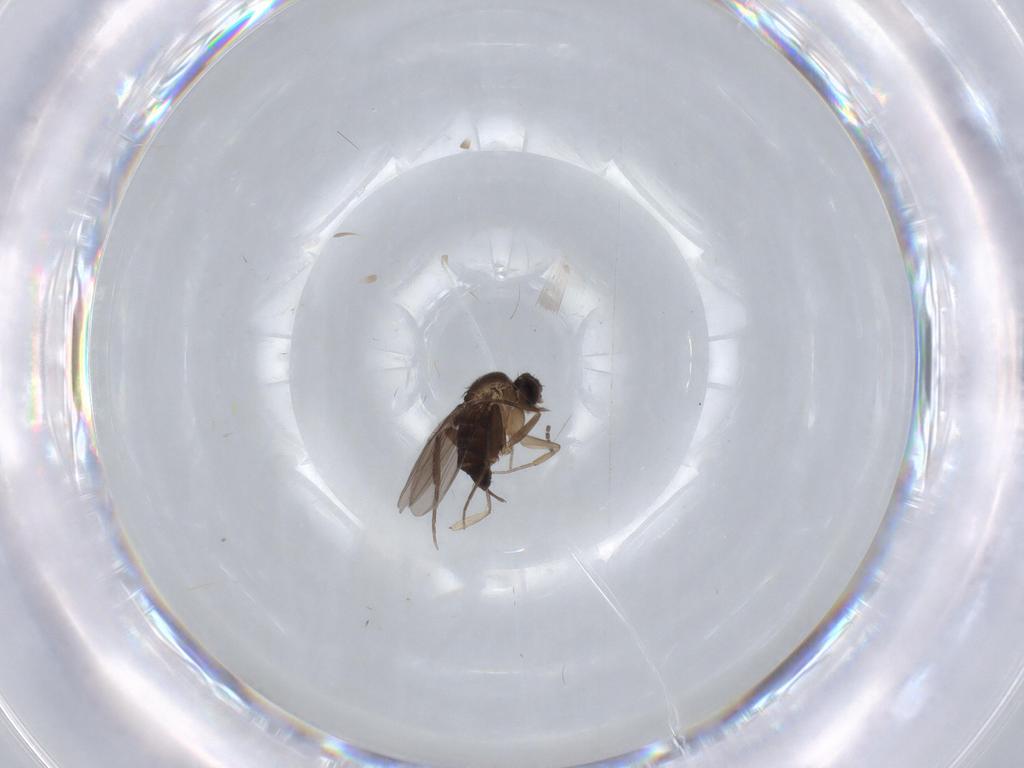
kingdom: Animalia
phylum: Arthropoda
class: Insecta
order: Diptera
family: Phoridae
